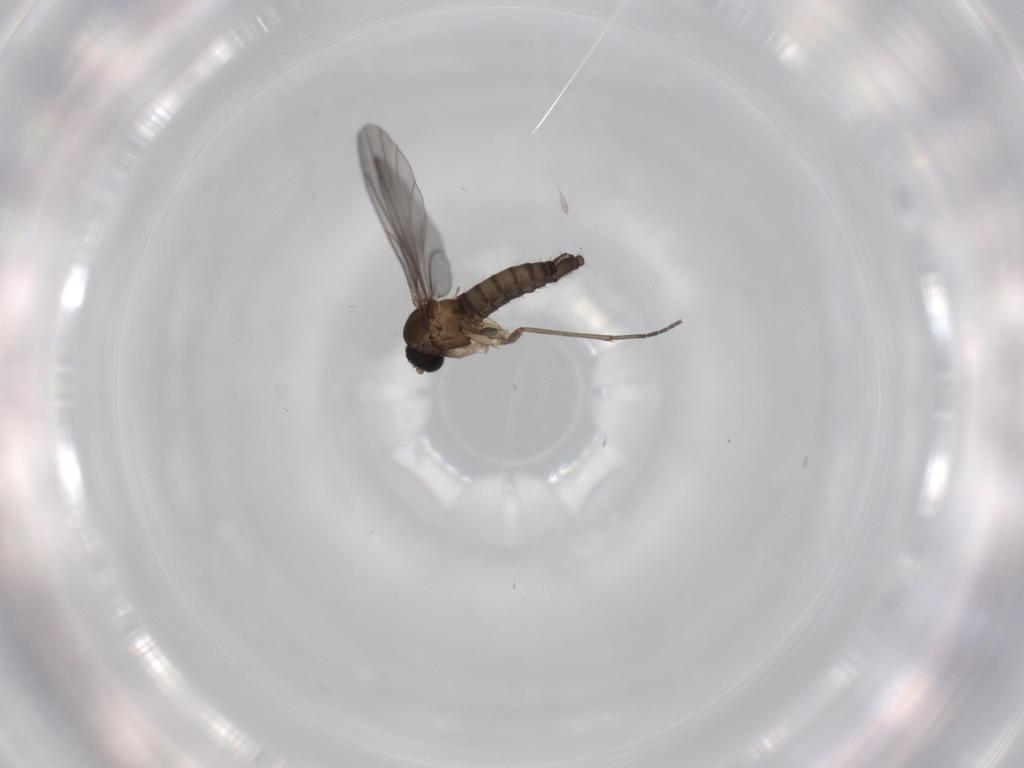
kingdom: Animalia
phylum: Arthropoda
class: Insecta
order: Diptera
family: Sciaridae
